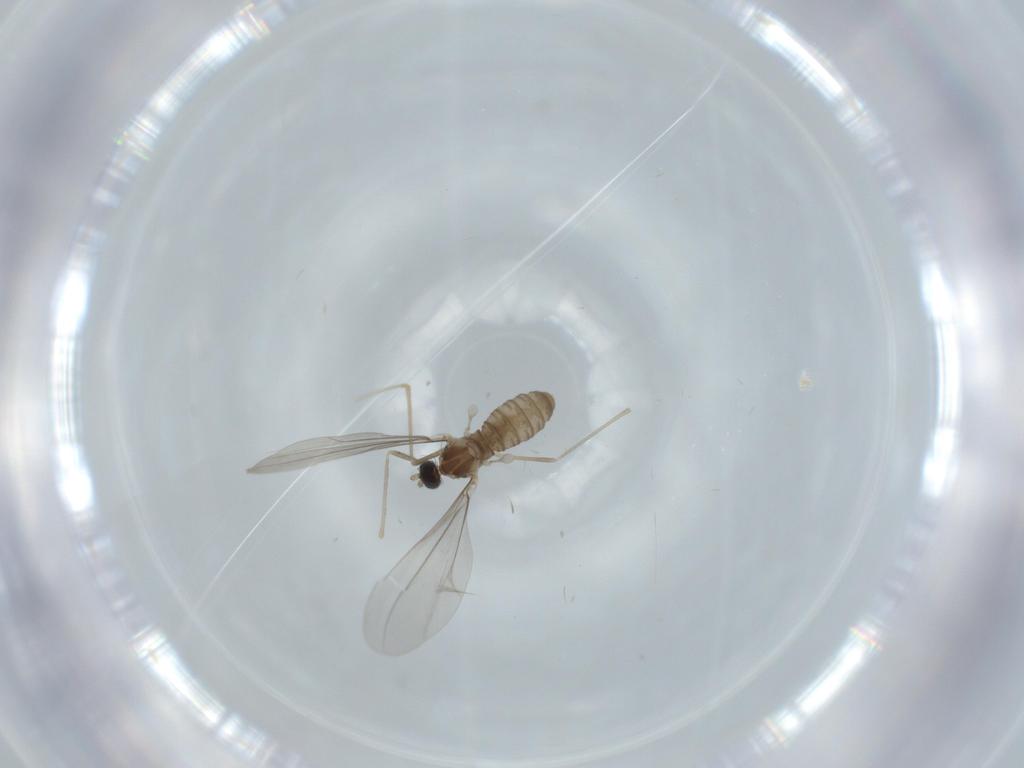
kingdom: Animalia
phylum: Arthropoda
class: Insecta
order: Diptera
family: Cecidomyiidae
